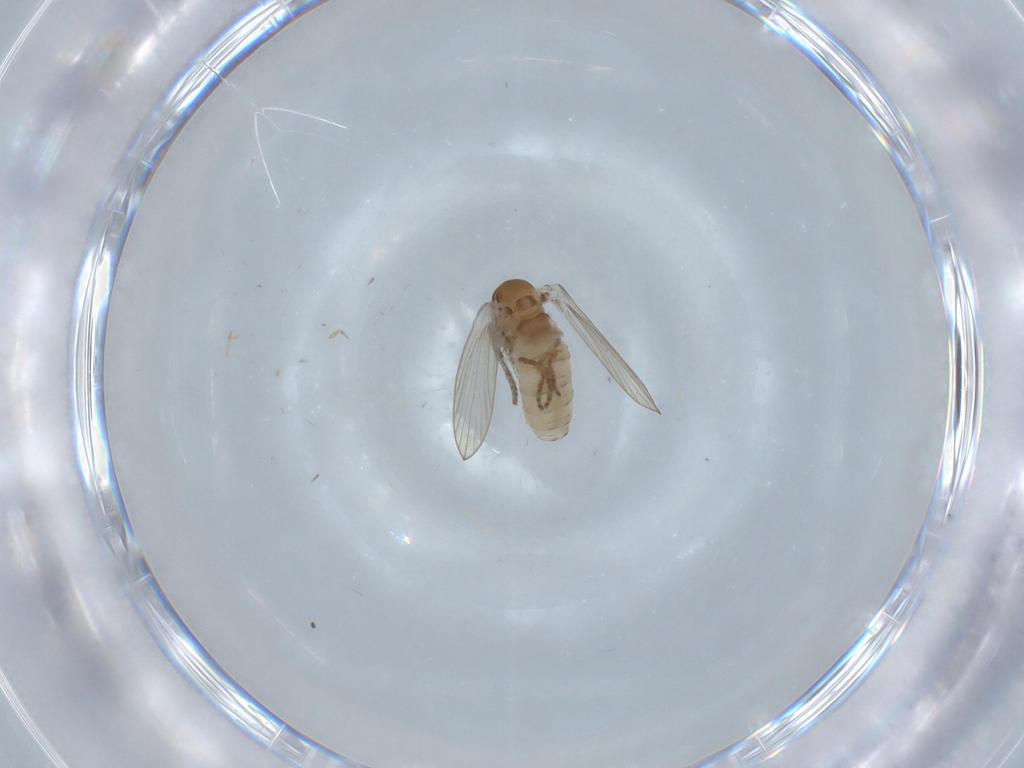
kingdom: Animalia
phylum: Arthropoda
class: Insecta
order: Diptera
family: Psychodidae
